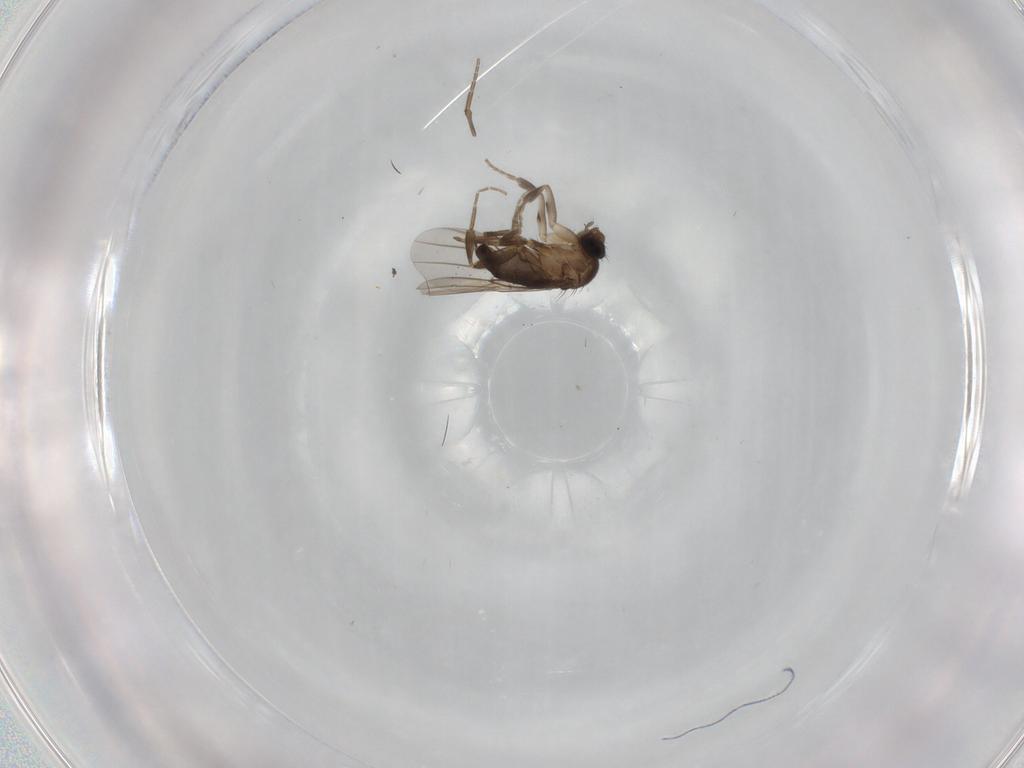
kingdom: Animalia
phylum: Arthropoda
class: Insecta
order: Diptera
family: Phoridae
